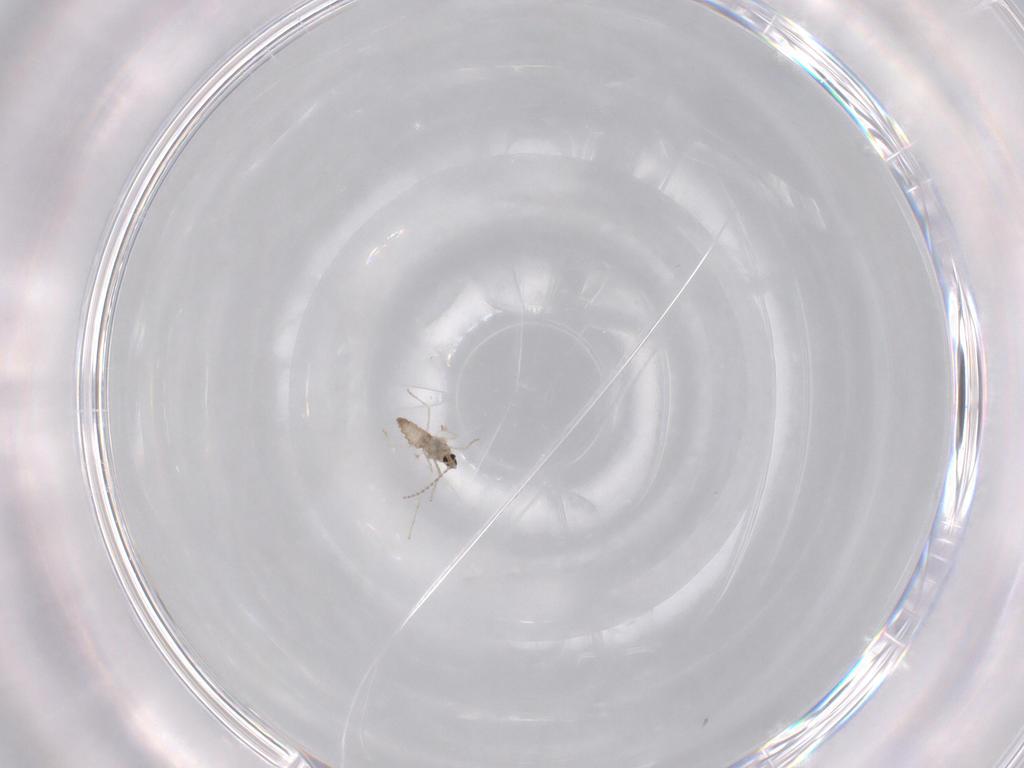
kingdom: Animalia
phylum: Arthropoda
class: Insecta
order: Diptera
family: Cecidomyiidae
